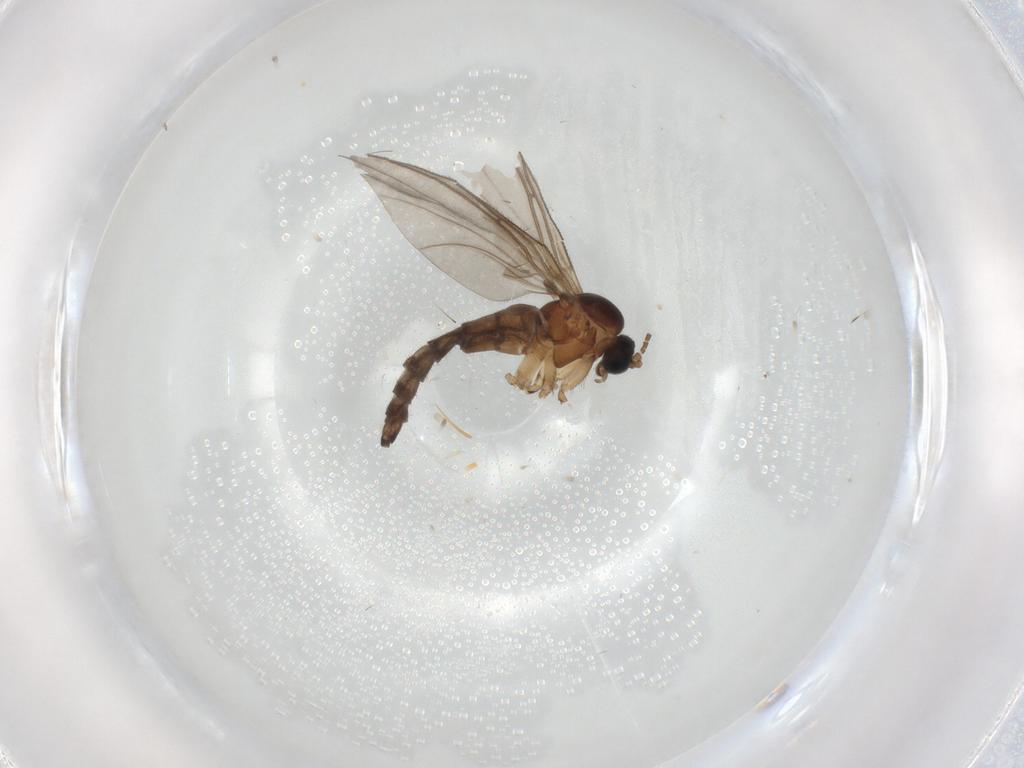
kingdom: Animalia
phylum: Arthropoda
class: Insecta
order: Diptera
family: Sciaridae
